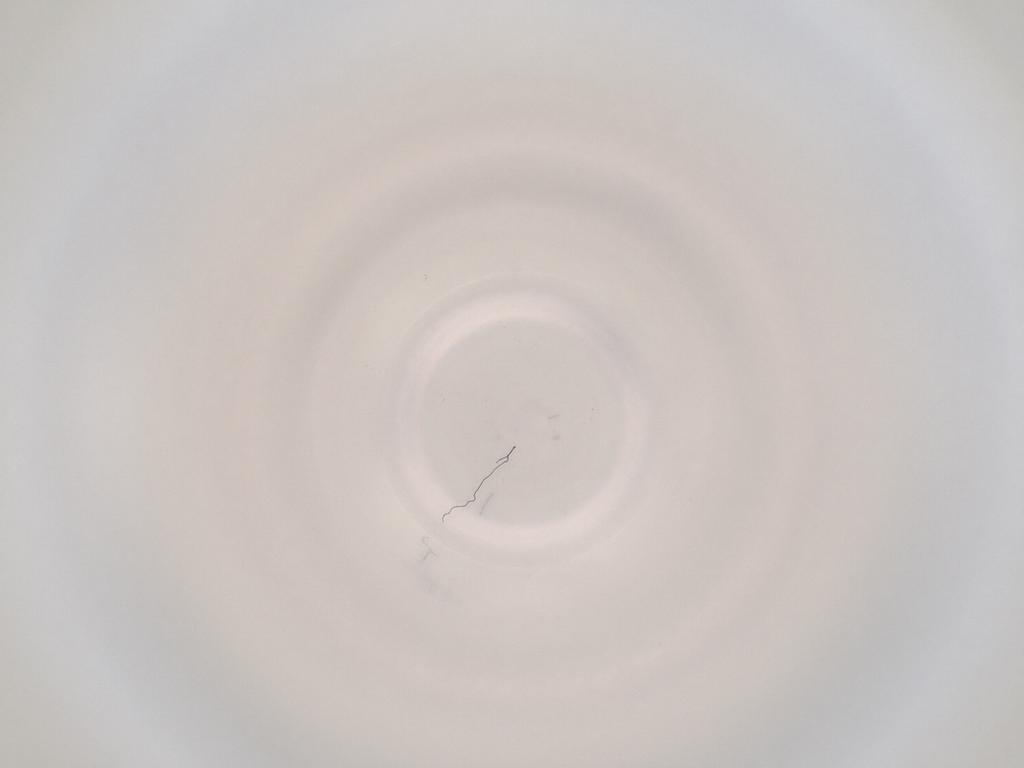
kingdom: Animalia
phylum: Arthropoda
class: Insecta
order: Diptera
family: Cecidomyiidae
